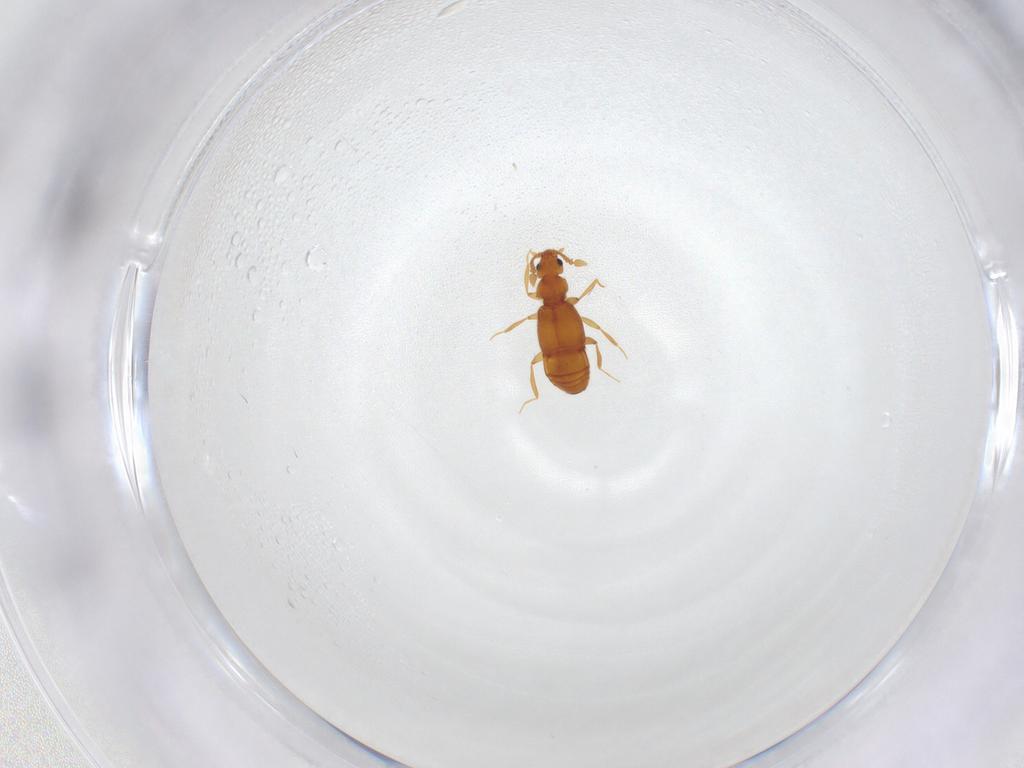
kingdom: Animalia
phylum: Arthropoda
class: Insecta
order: Coleoptera
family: Staphylinidae
